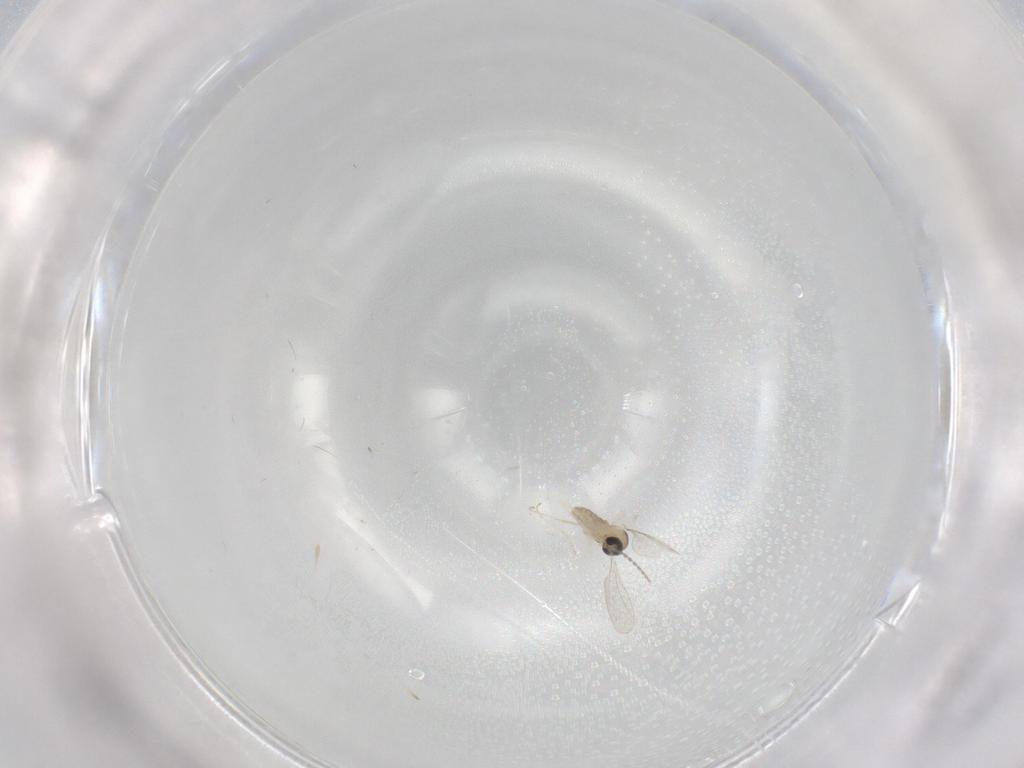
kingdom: Animalia
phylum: Arthropoda
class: Insecta
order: Diptera
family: Cecidomyiidae
